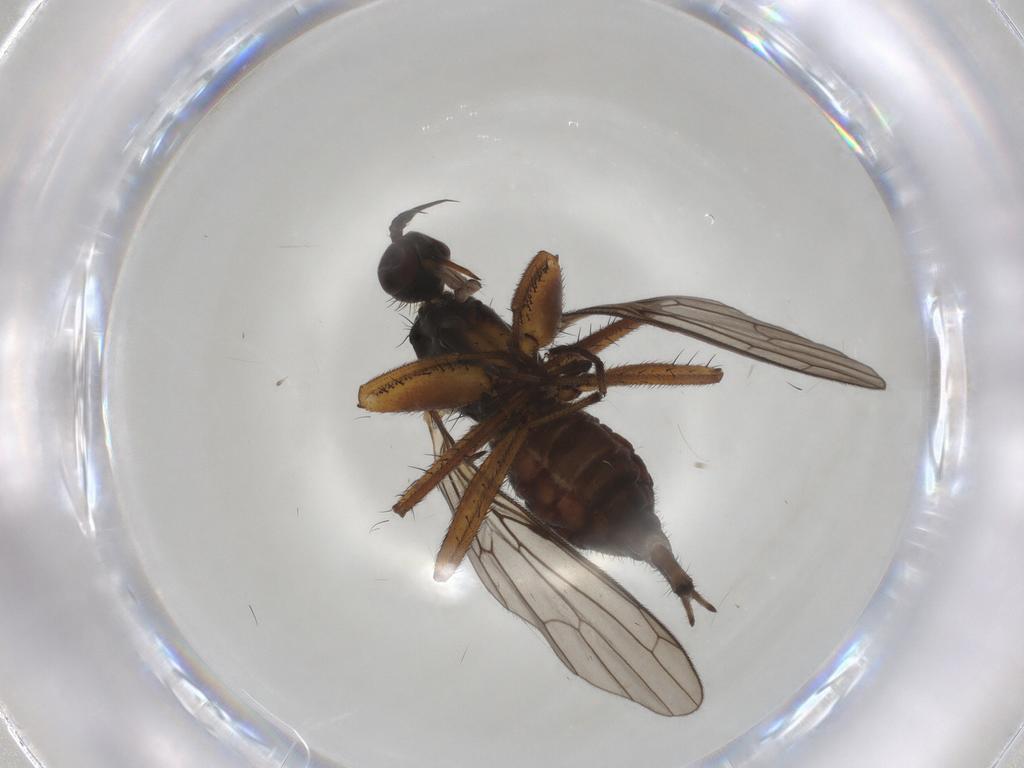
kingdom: Animalia
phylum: Arthropoda
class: Insecta
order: Diptera
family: Empididae
